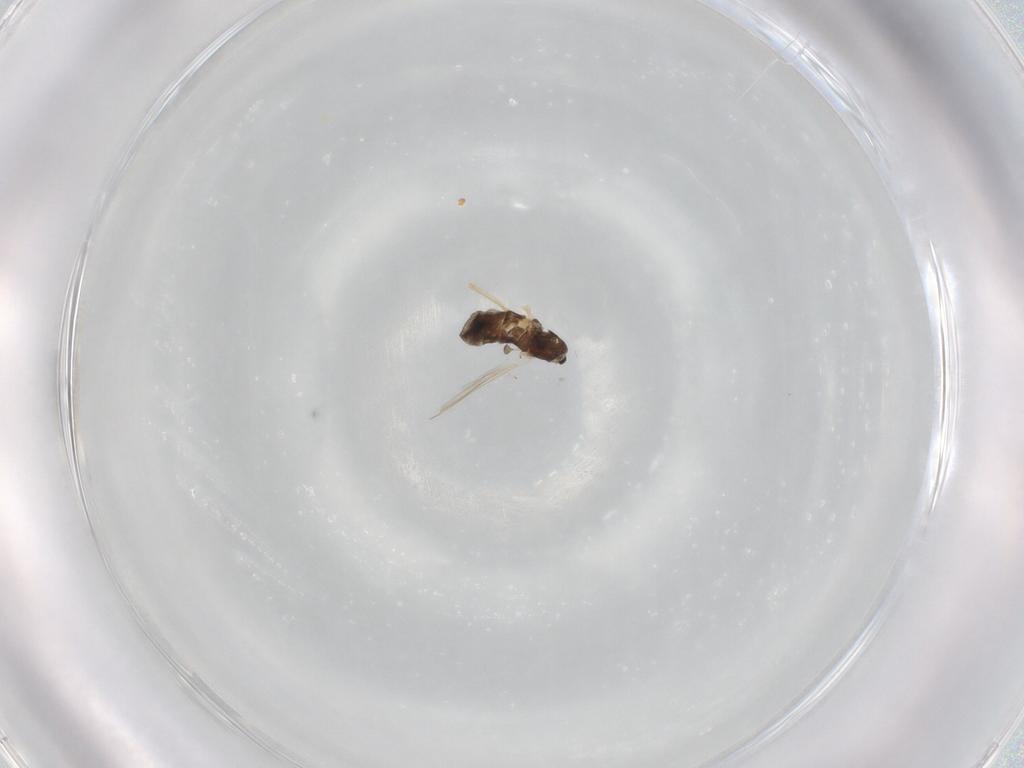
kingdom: Animalia
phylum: Arthropoda
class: Insecta
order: Diptera
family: Chironomidae
